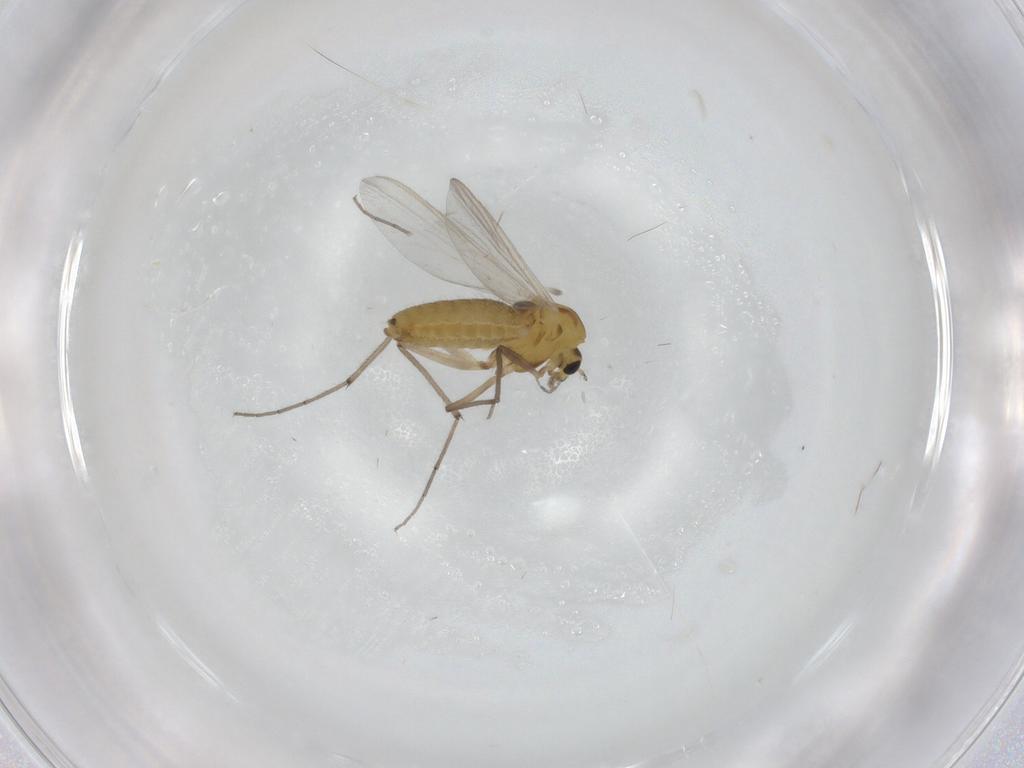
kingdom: Animalia
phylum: Arthropoda
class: Insecta
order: Diptera
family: Chironomidae
